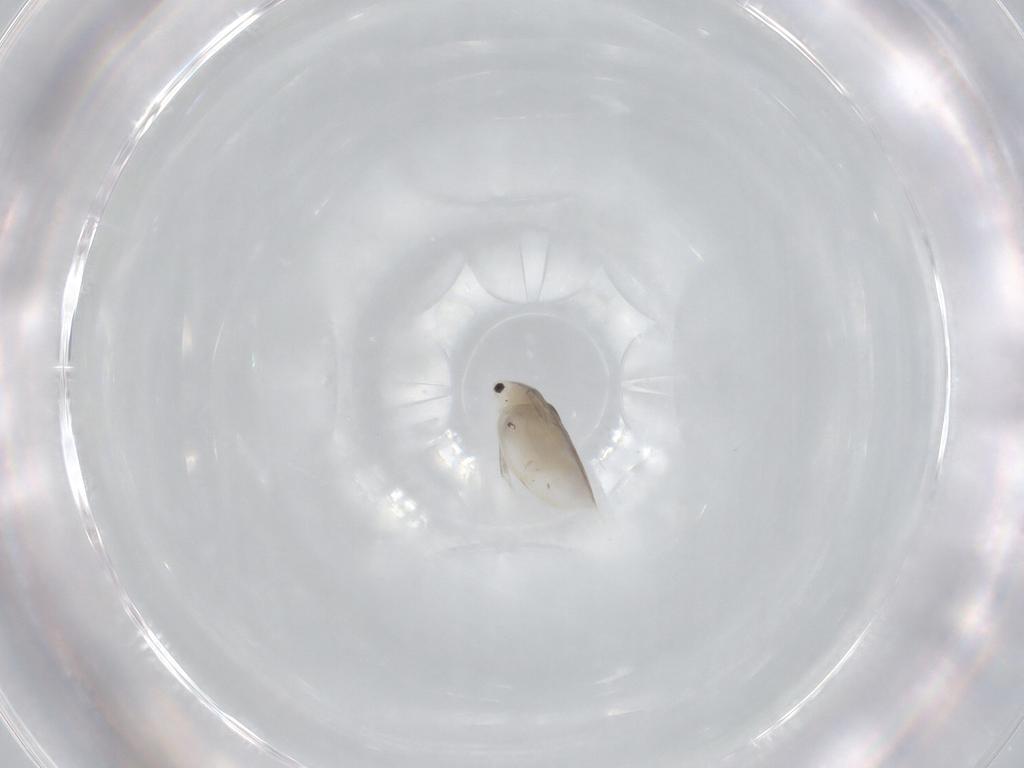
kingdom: Animalia
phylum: Arthropoda
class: Branchiopoda
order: Diplostraca
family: Daphniidae
